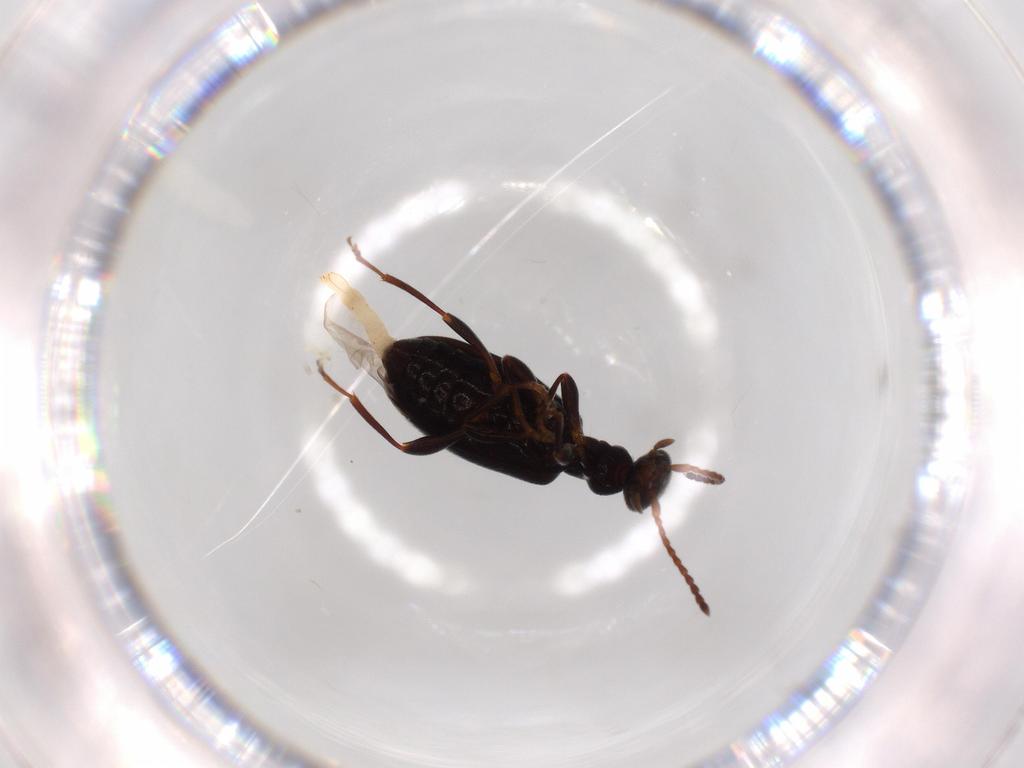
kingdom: Animalia
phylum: Arthropoda
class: Insecta
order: Coleoptera
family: Anthicidae
